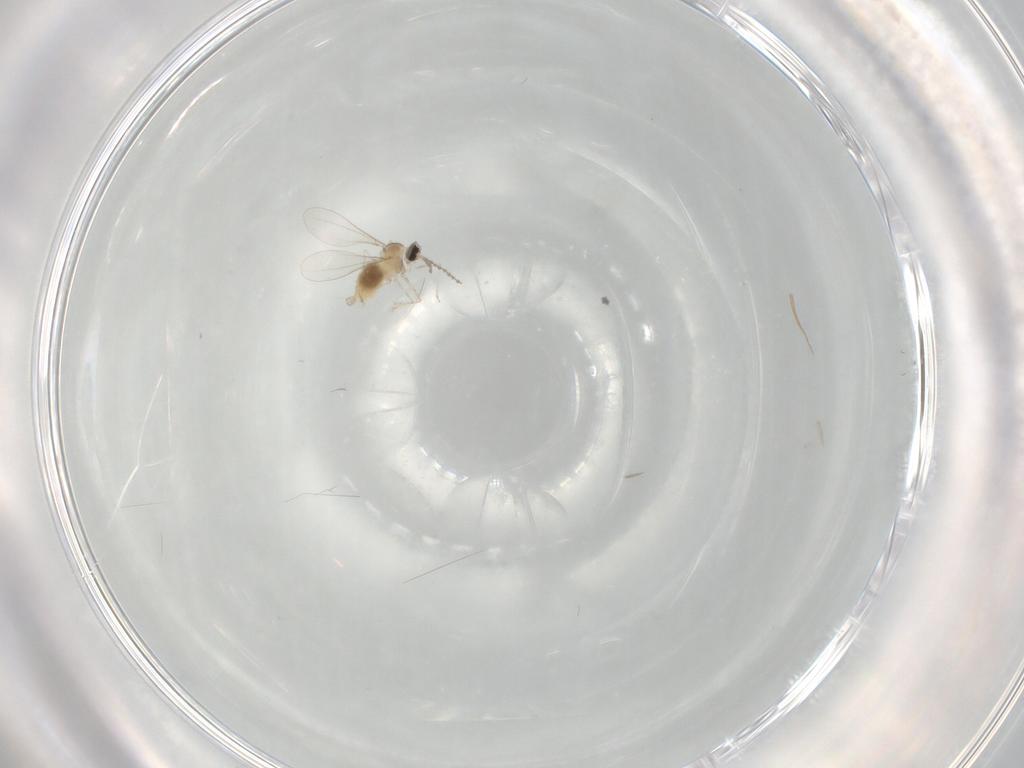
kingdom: Animalia
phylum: Arthropoda
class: Insecta
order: Diptera
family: Cecidomyiidae
